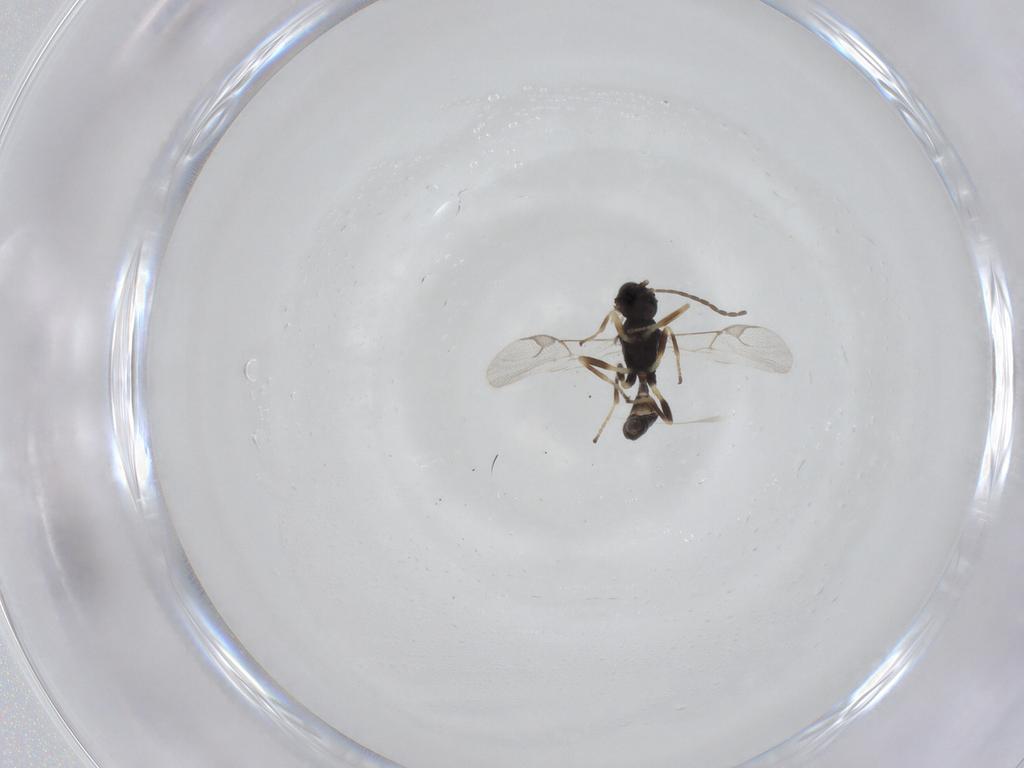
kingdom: Animalia
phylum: Arthropoda
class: Insecta
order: Hymenoptera
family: Braconidae
